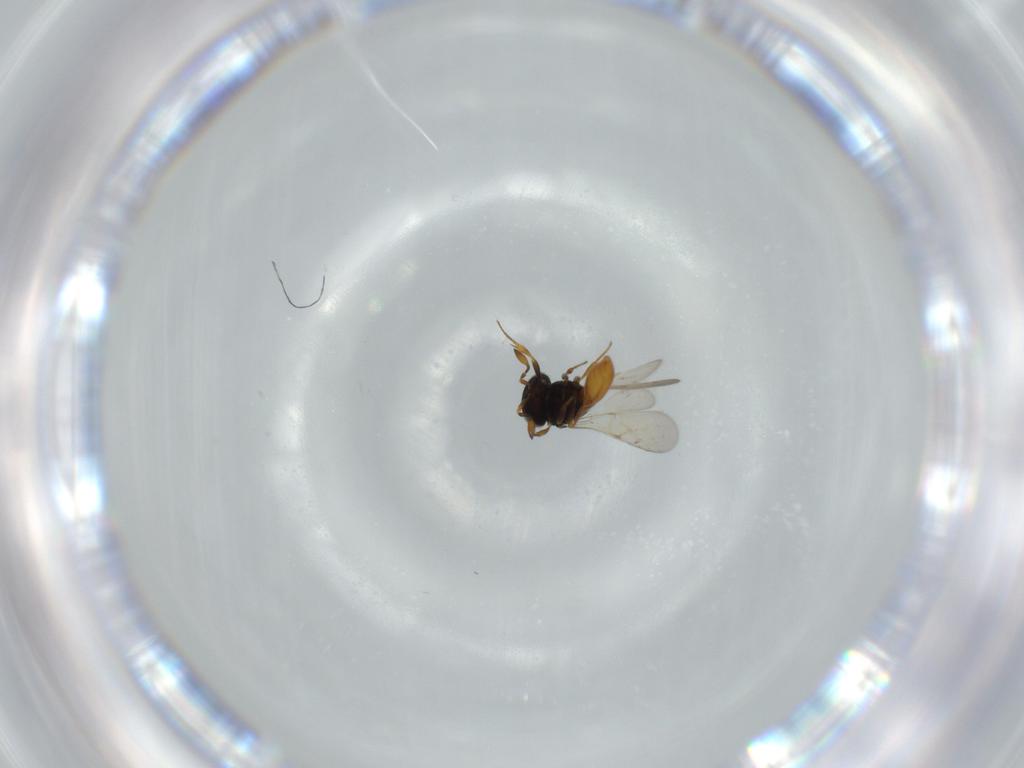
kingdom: Animalia
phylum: Arthropoda
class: Insecta
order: Hymenoptera
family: Scelionidae
